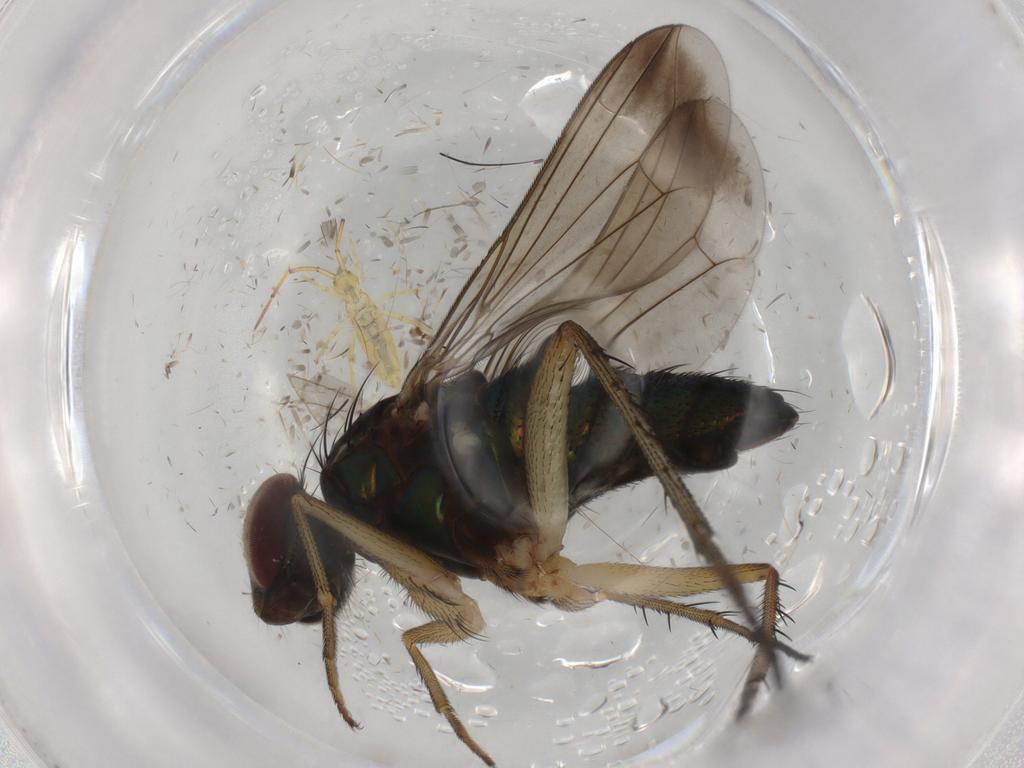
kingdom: Animalia
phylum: Arthropoda
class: Insecta
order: Diptera
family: Dolichopodidae
